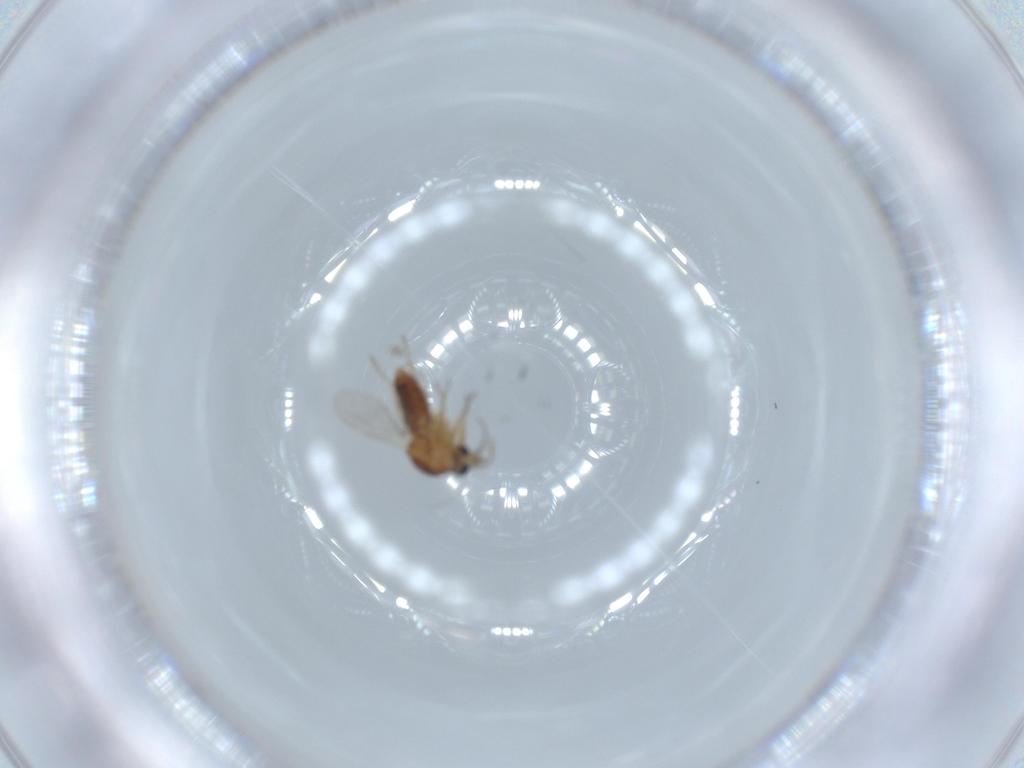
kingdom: Animalia
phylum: Arthropoda
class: Insecta
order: Diptera
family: Ceratopogonidae
